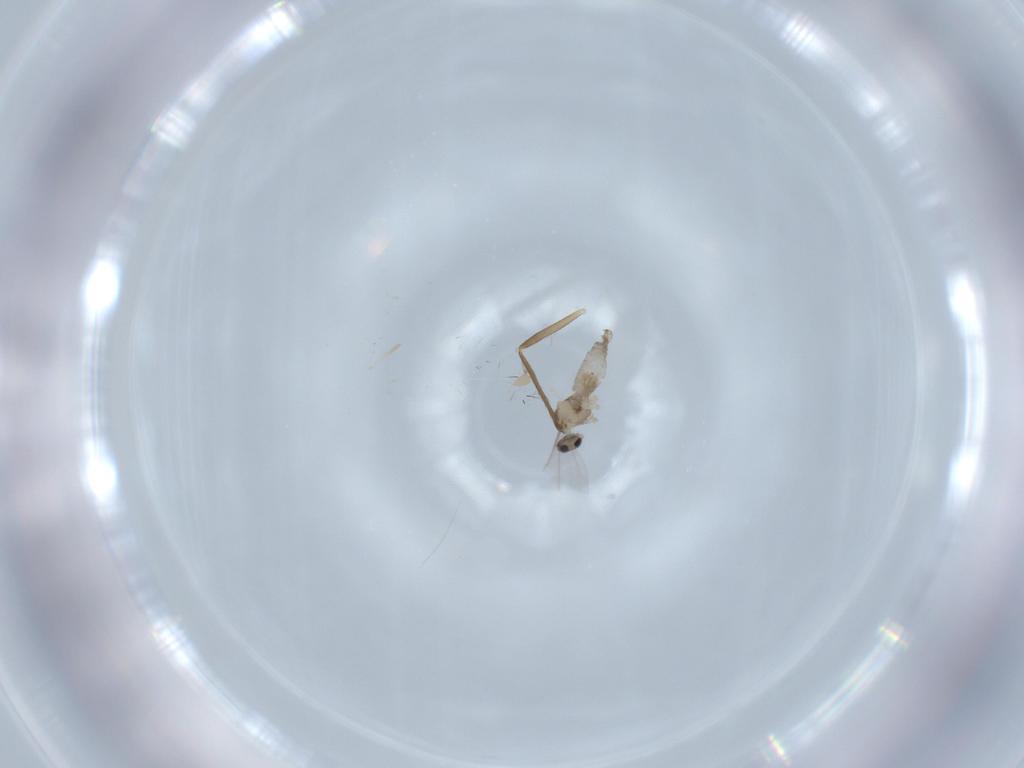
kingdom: Animalia
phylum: Arthropoda
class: Insecta
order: Diptera
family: Cecidomyiidae
